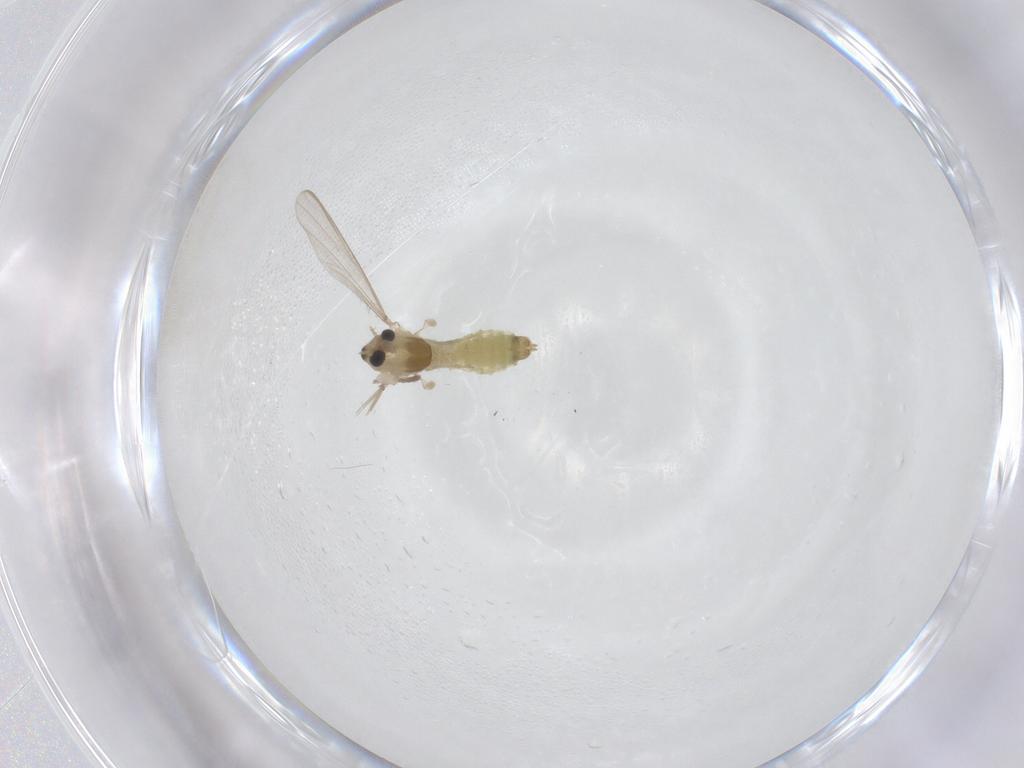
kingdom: Animalia
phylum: Arthropoda
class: Insecta
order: Diptera
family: Chironomidae
